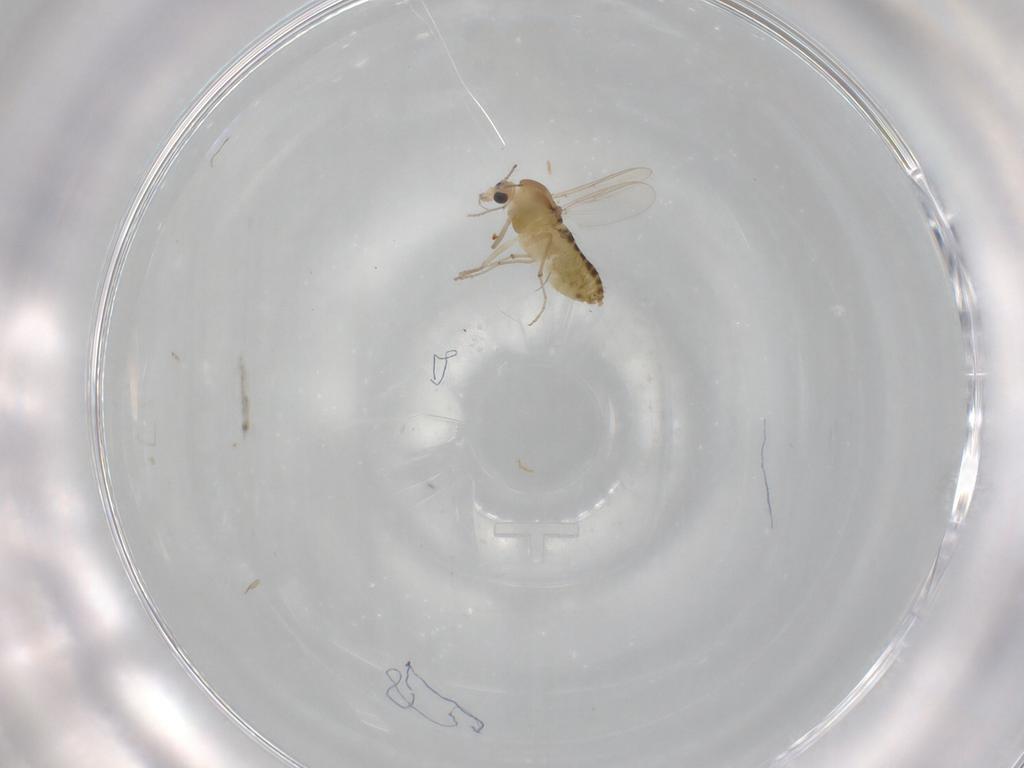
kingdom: Animalia
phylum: Arthropoda
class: Insecta
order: Diptera
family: Chironomidae
